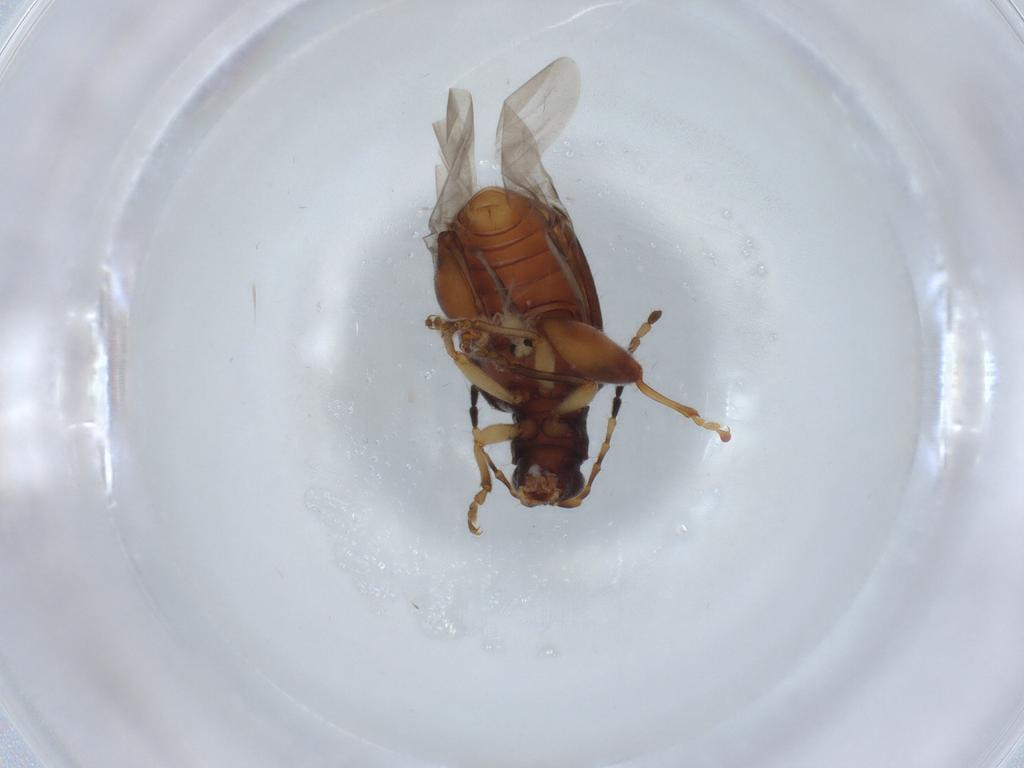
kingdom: Animalia
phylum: Arthropoda
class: Insecta
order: Coleoptera
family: Chrysomelidae
